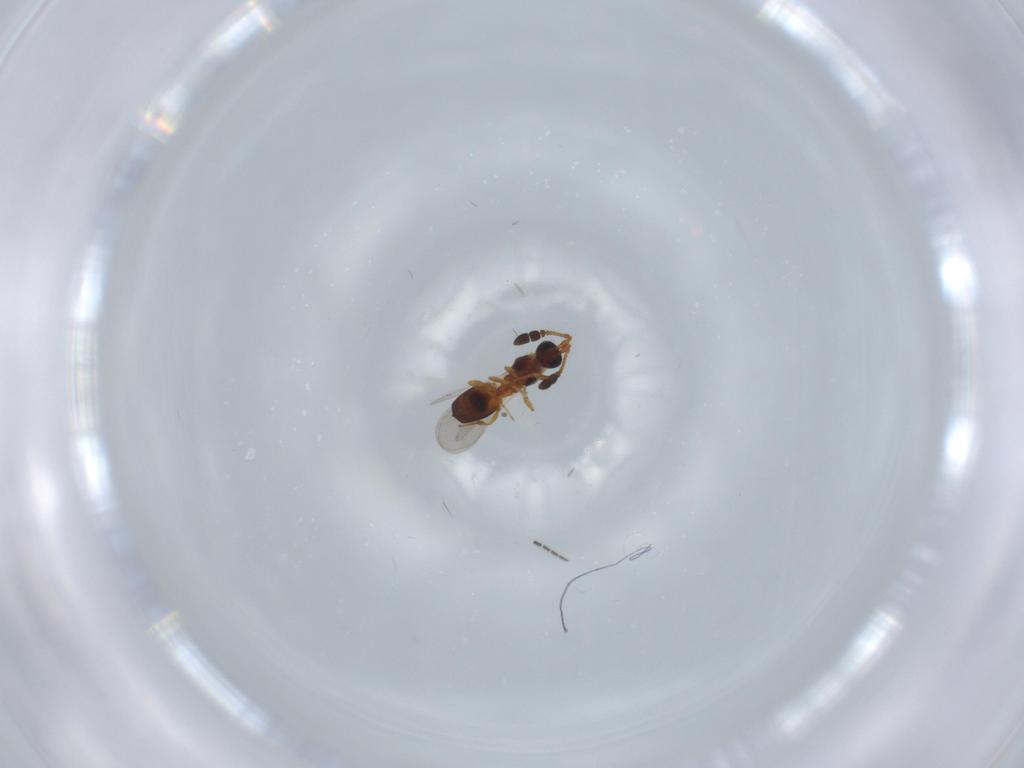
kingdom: Animalia
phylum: Arthropoda
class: Insecta
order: Hymenoptera
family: Diapriidae
